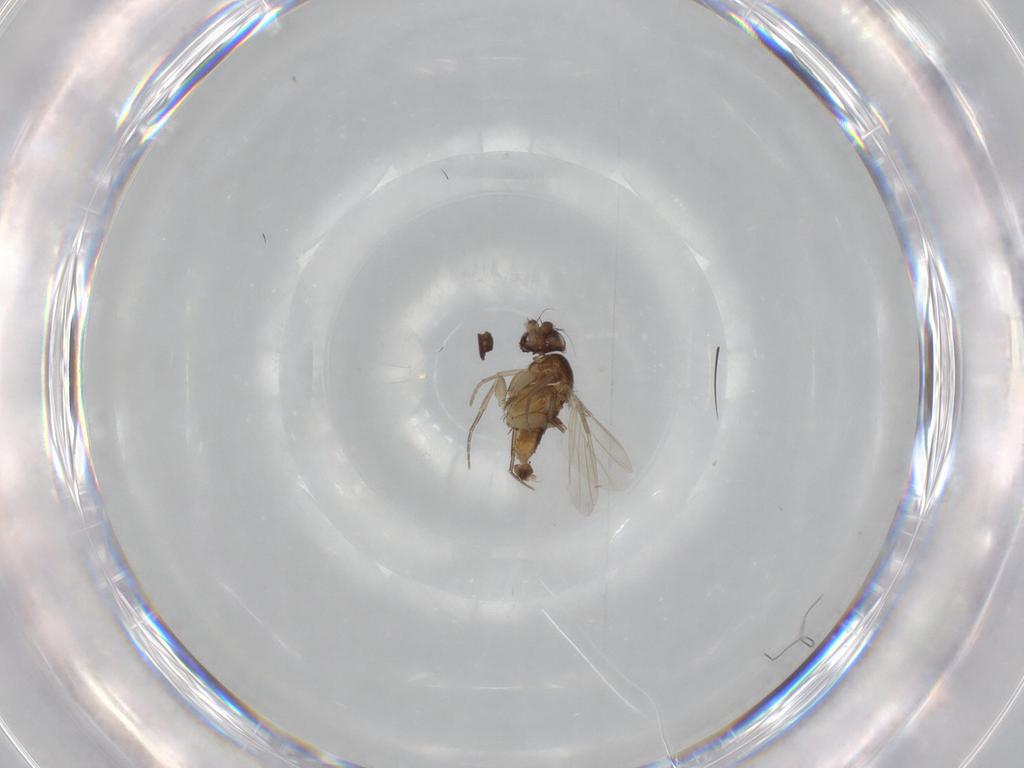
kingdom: Animalia
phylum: Arthropoda
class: Insecta
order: Diptera
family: Phoridae
